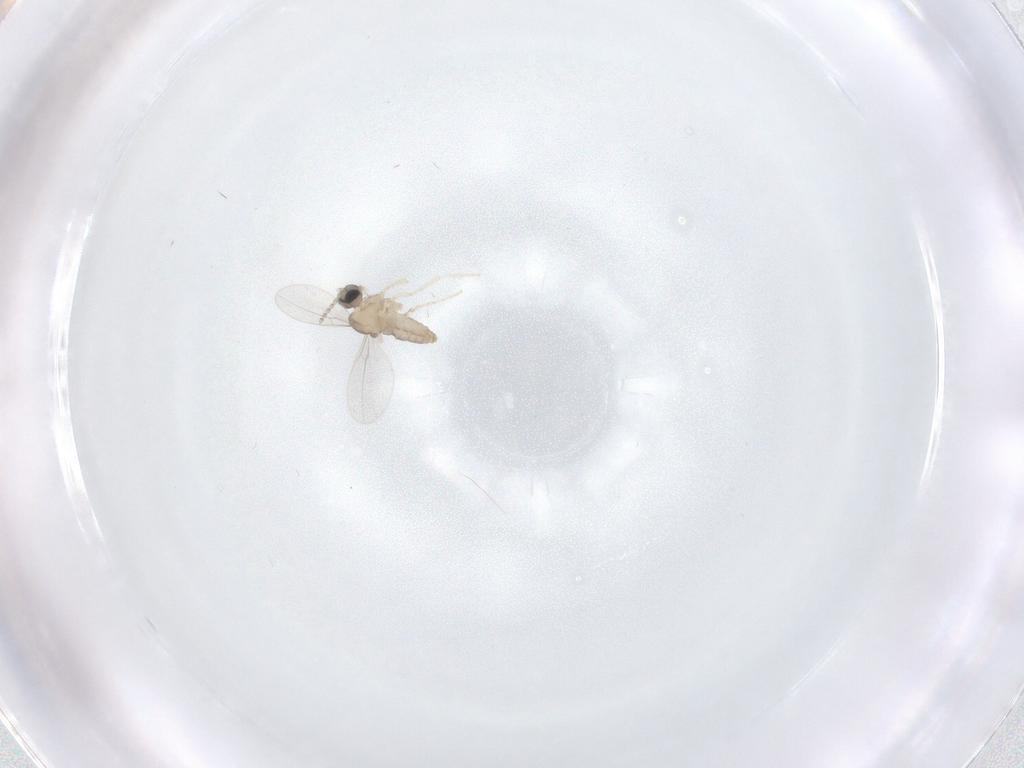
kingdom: Animalia
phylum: Arthropoda
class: Insecta
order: Diptera
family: Cecidomyiidae
